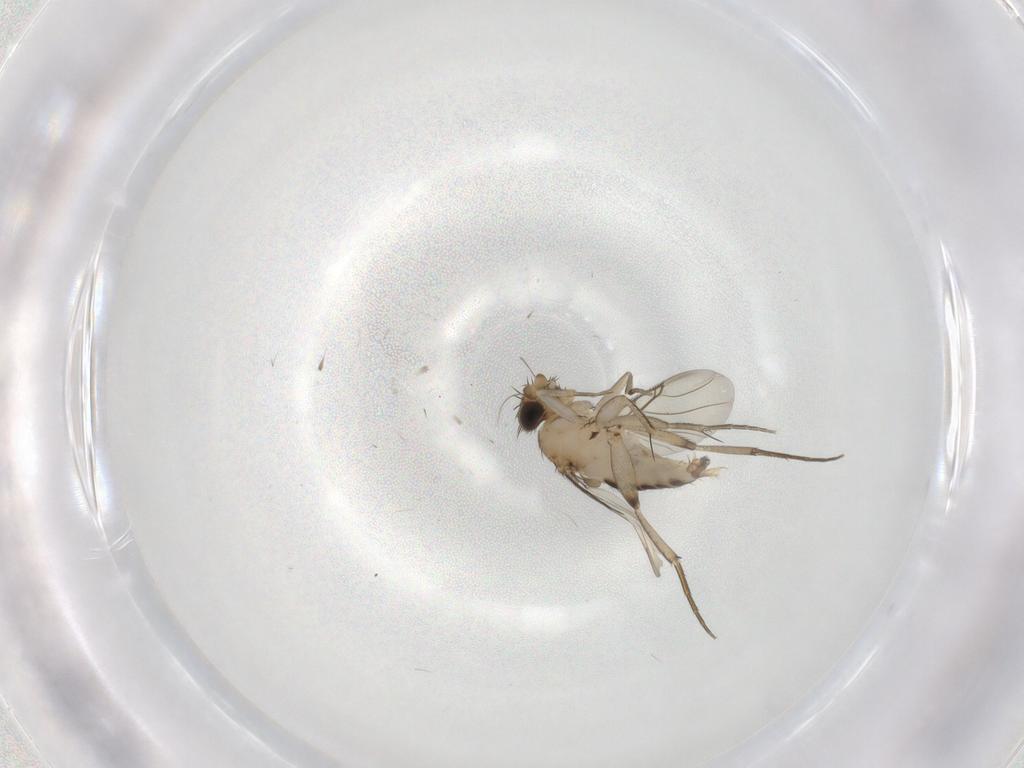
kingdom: Animalia
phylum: Arthropoda
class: Insecta
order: Diptera
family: Phoridae
